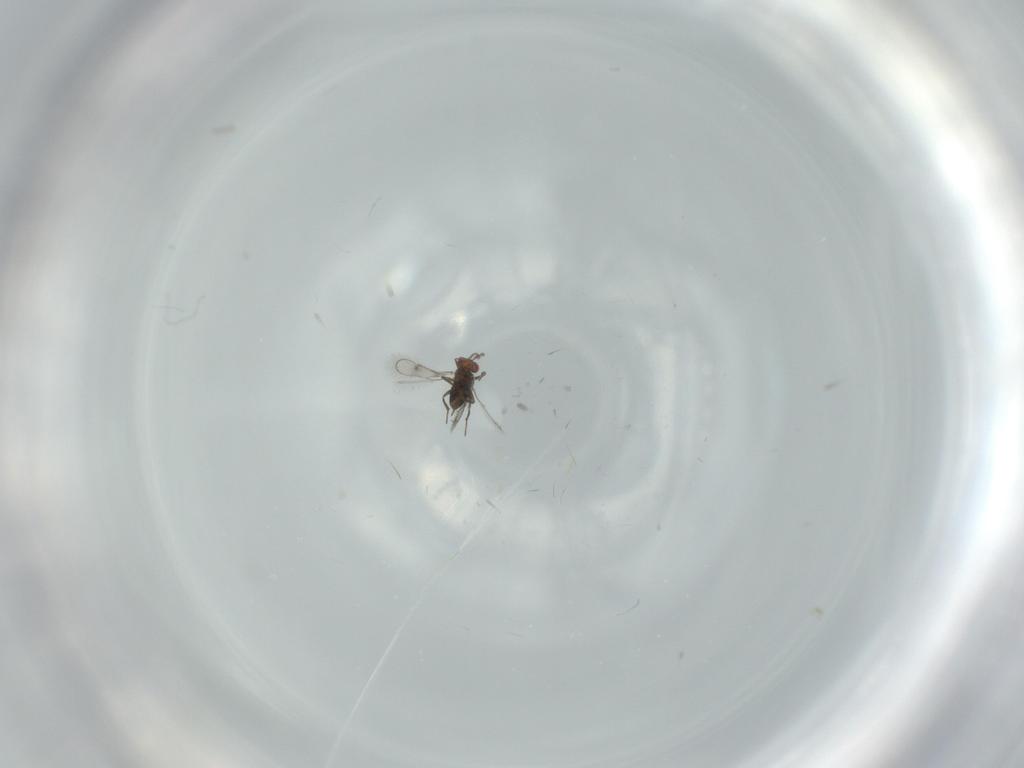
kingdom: Animalia
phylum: Arthropoda
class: Insecta
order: Hymenoptera
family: Trichogrammatidae
